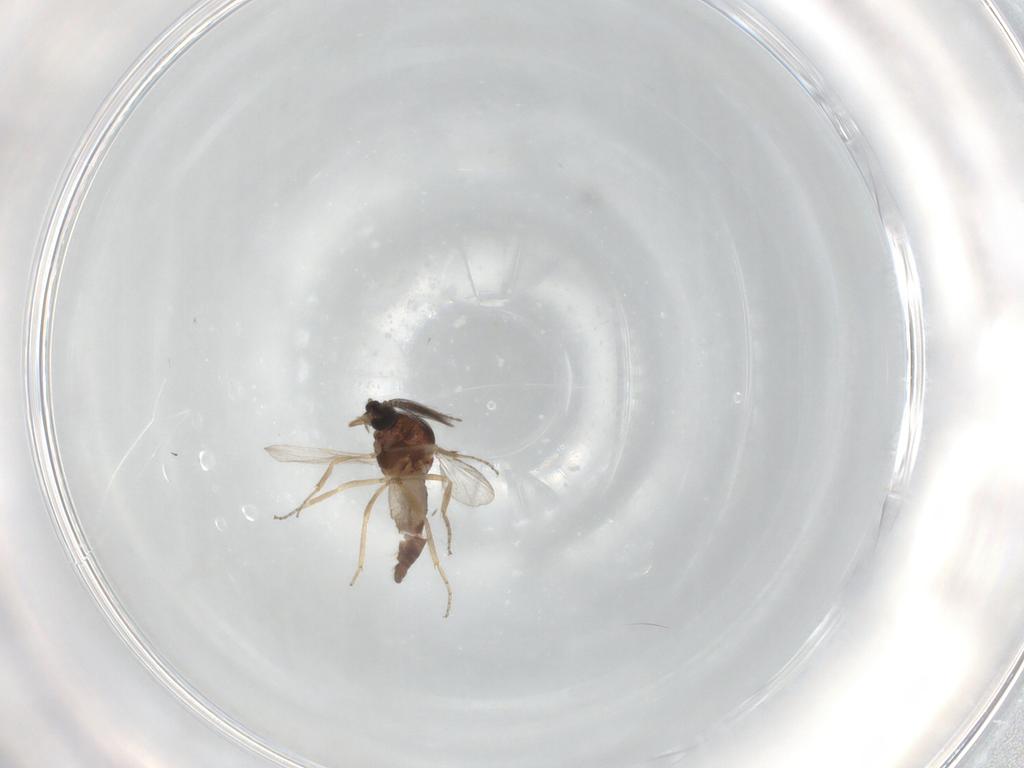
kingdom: Animalia
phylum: Arthropoda
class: Insecta
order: Diptera
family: Ceratopogonidae
